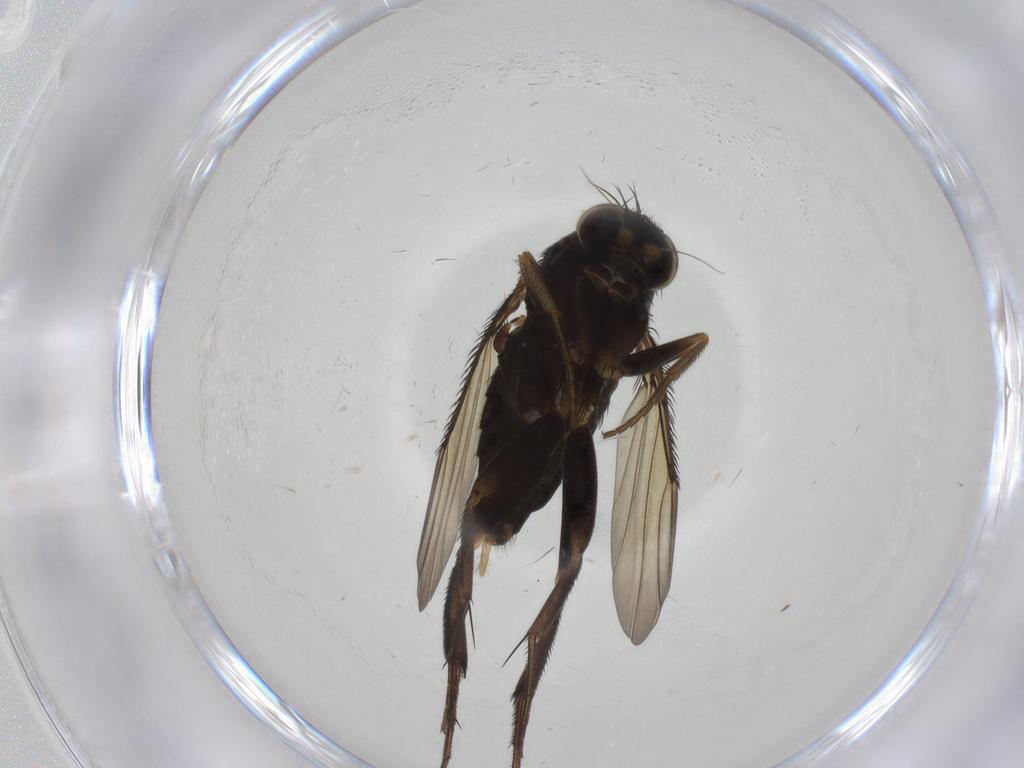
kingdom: Animalia
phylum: Arthropoda
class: Insecta
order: Diptera
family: Phoridae
